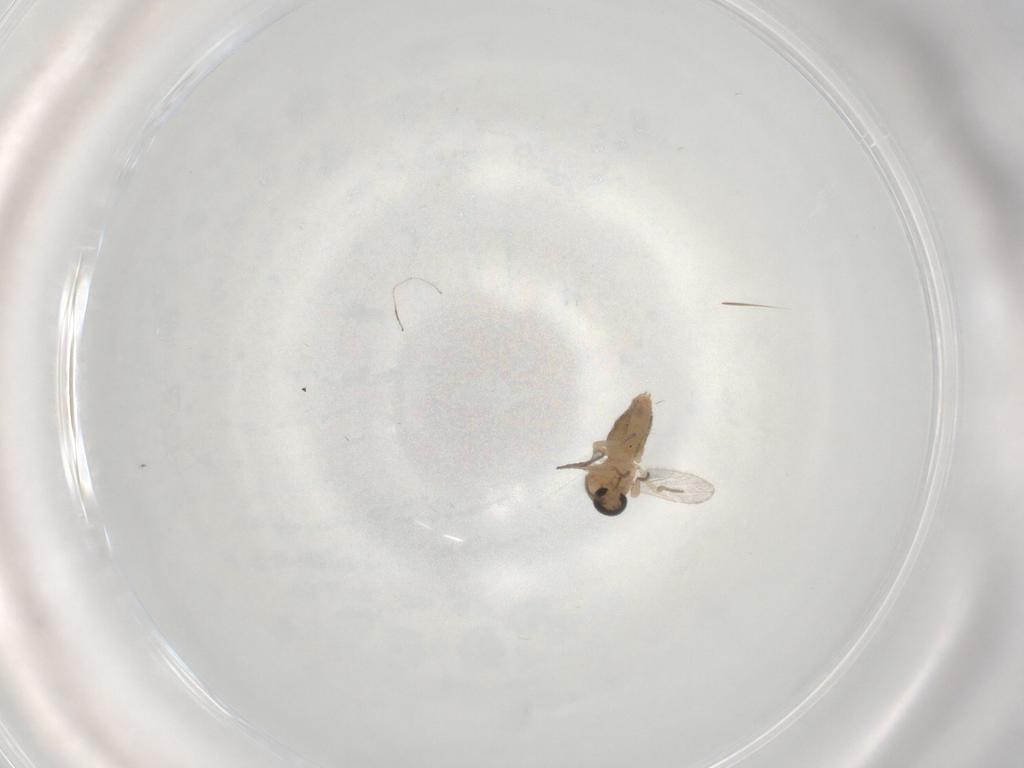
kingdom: Animalia
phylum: Arthropoda
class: Insecta
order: Diptera
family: Ceratopogonidae
